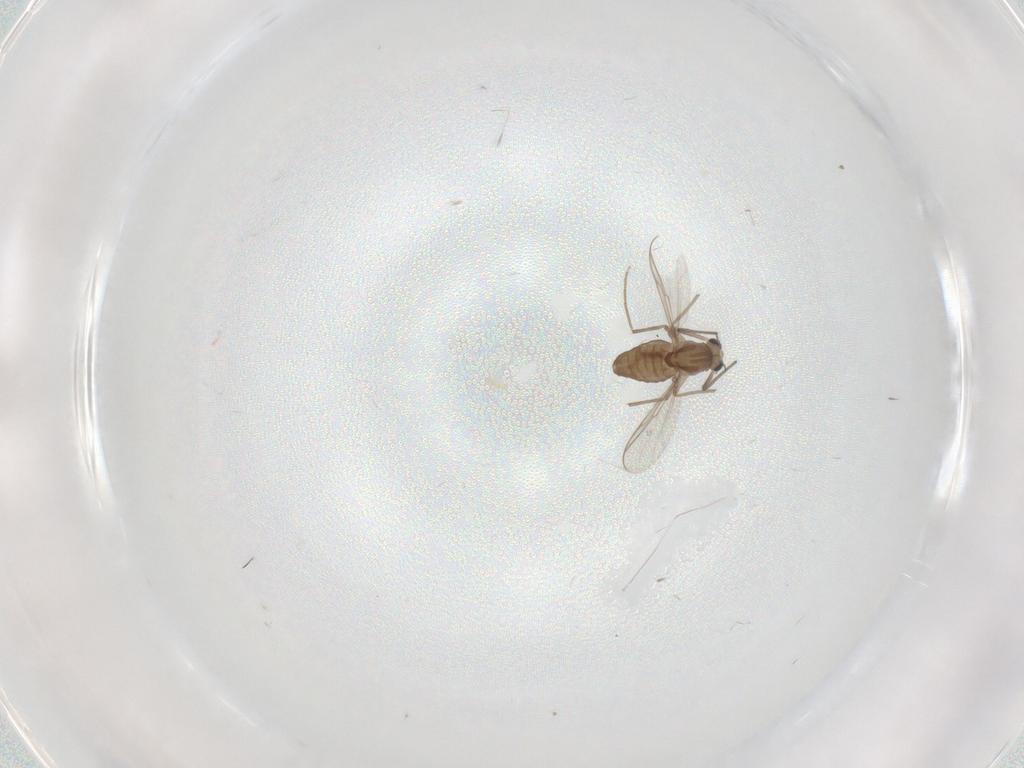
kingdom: Animalia
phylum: Arthropoda
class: Insecta
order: Diptera
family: Chironomidae
